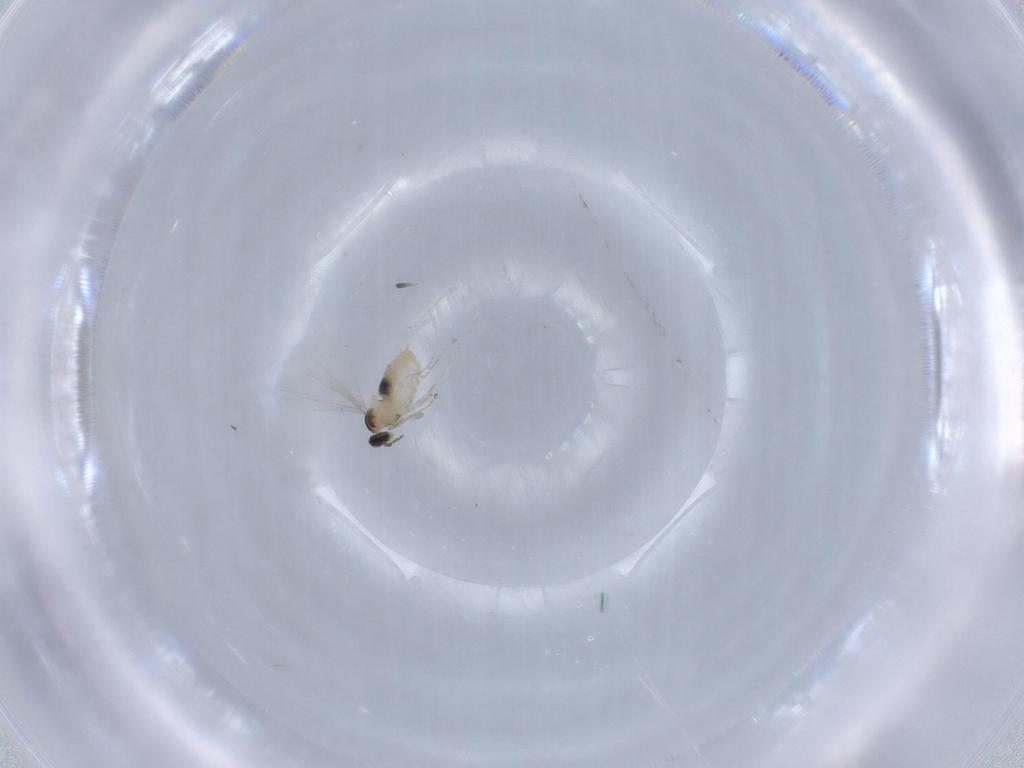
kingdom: Animalia
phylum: Arthropoda
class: Insecta
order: Diptera
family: Cecidomyiidae
